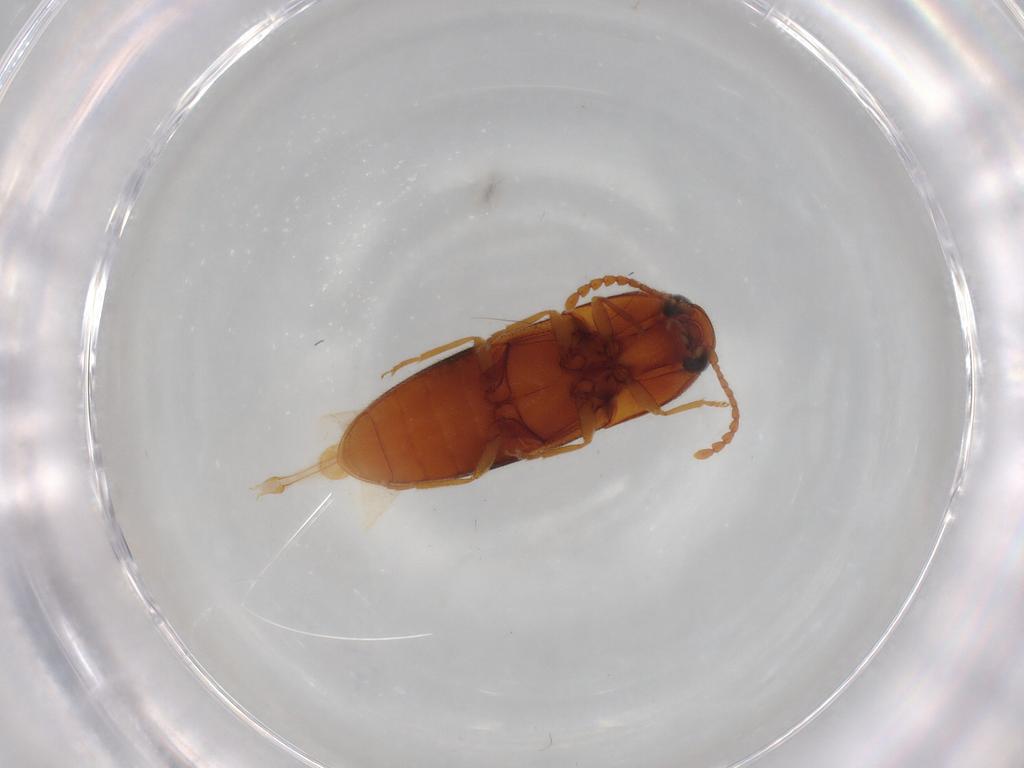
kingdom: Animalia
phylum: Arthropoda
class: Insecta
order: Coleoptera
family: Elateridae
